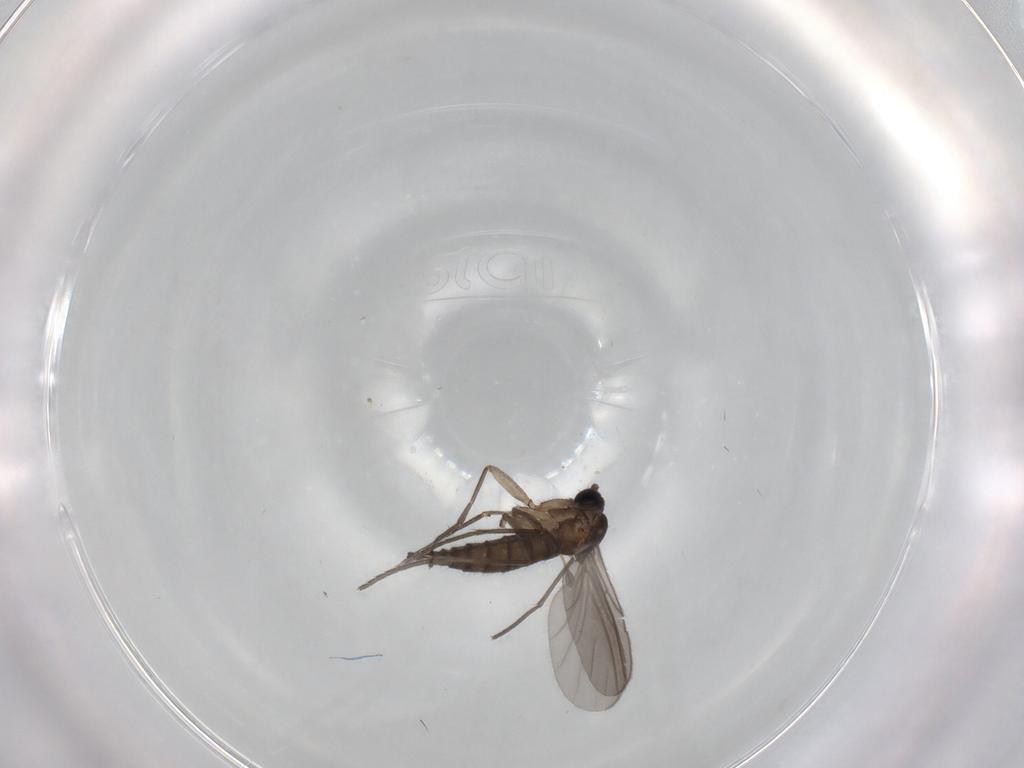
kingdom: Animalia
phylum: Arthropoda
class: Insecta
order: Diptera
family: Sciaridae
